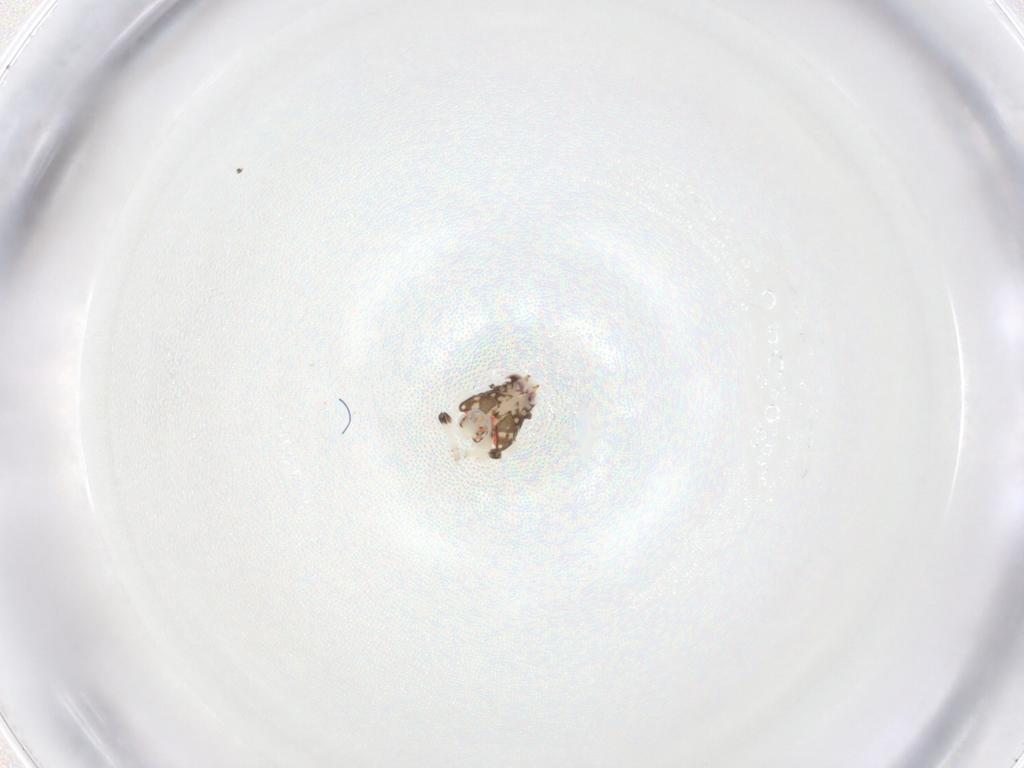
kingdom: Animalia
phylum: Arthropoda
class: Insecta
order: Hemiptera
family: Nogodinidae
